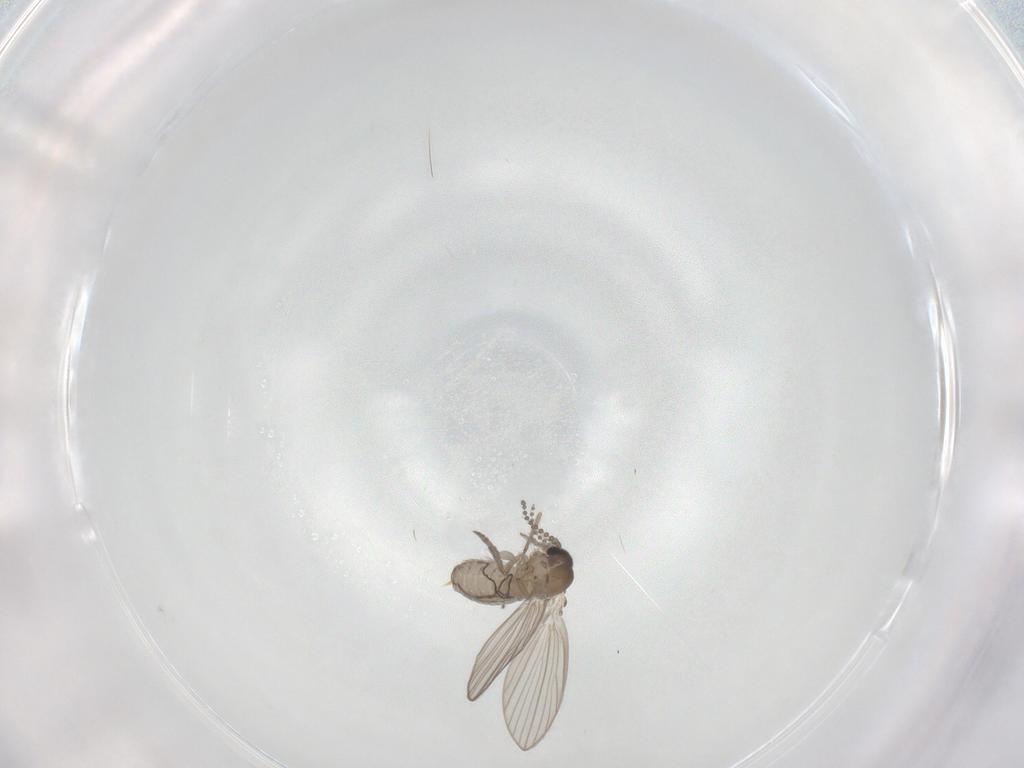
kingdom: Animalia
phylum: Arthropoda
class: Insecta
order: Diptera
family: Psychodidae
